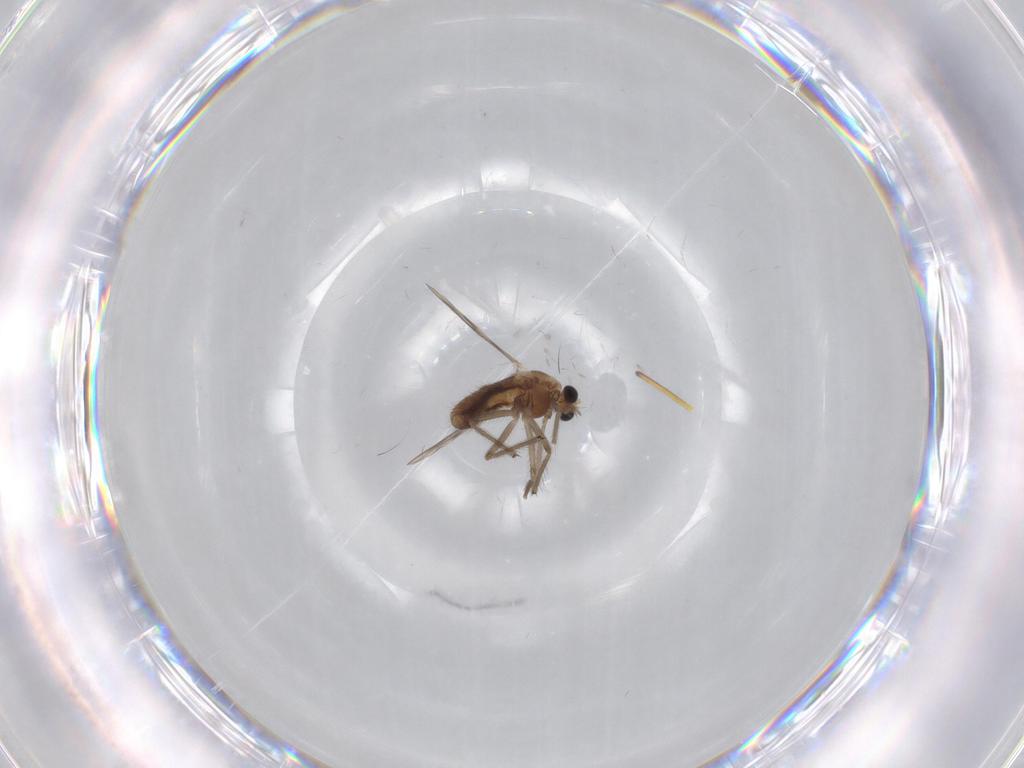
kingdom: Animalia
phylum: Arthropoda
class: Insecta
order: Diptera
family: Chironomidae
